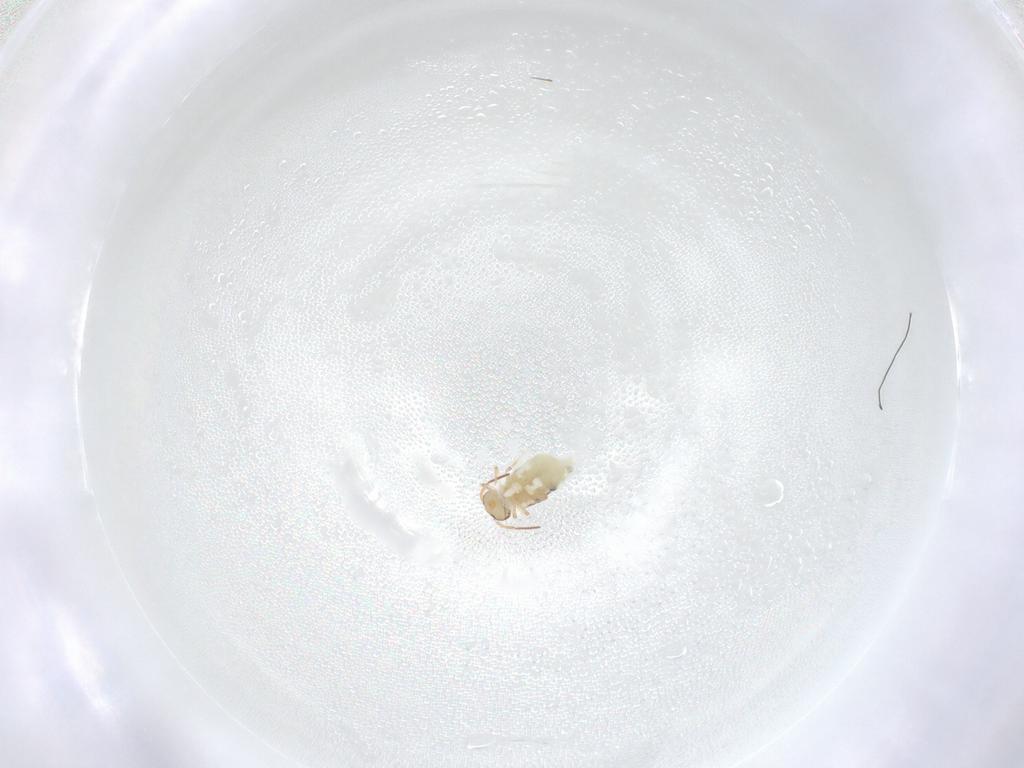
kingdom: Animalia
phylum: Arthropoda
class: Collembola
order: Symphypleona
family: Bourletiellidae
